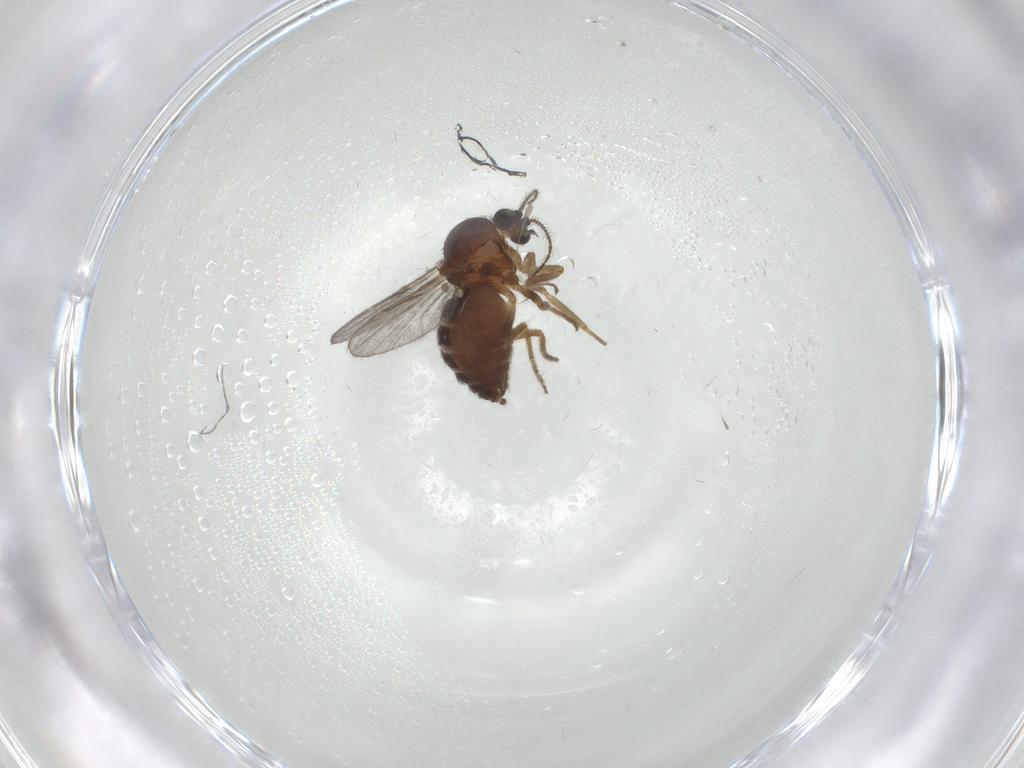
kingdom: Animalia
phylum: Arthropoda
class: Insecta
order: Diptera
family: Ceratopogonidae
